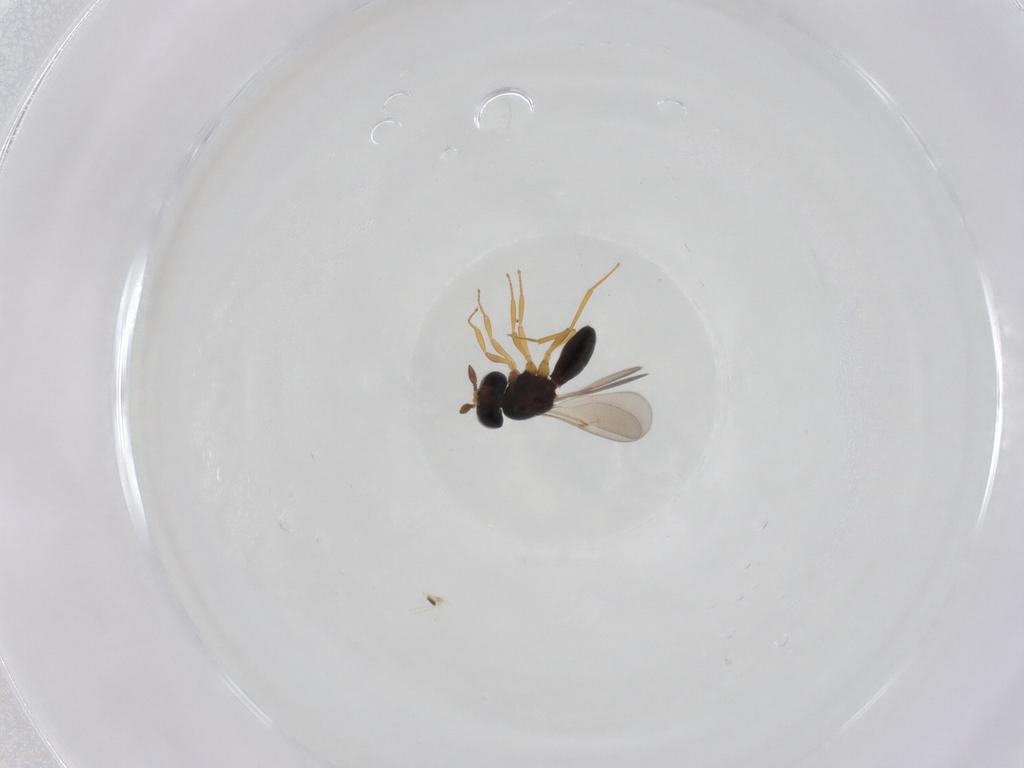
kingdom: Animalia
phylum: Arthropoda
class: Insecta
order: Hymenoptera
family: Scelionidae
